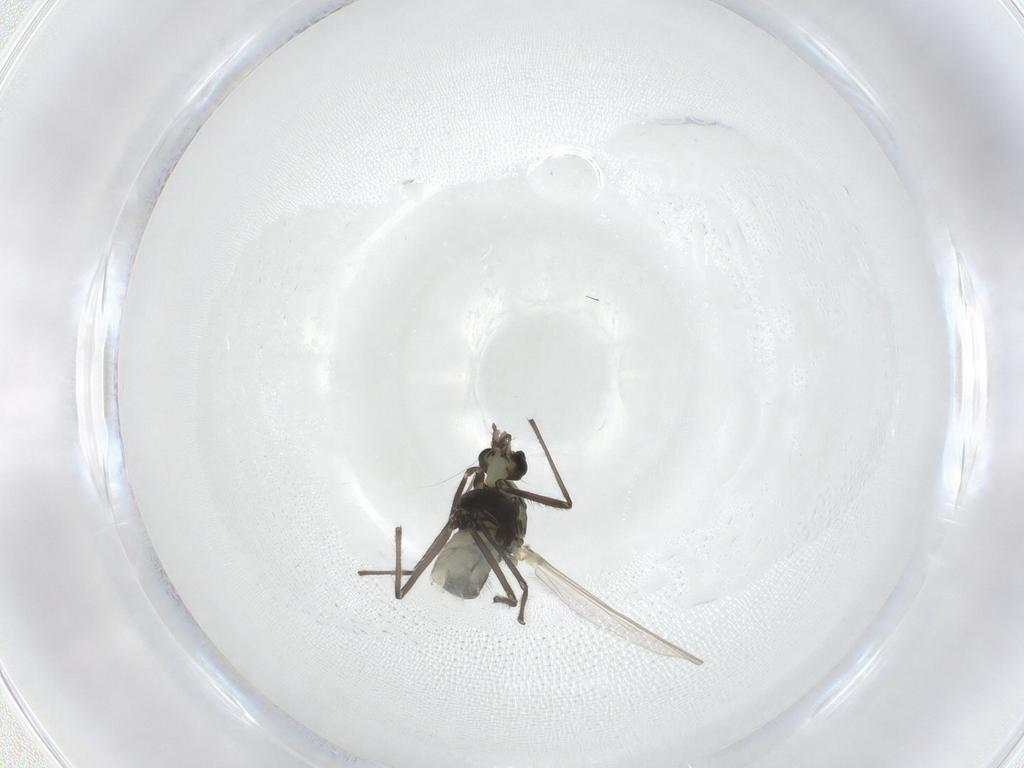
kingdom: Animalia
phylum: Arthropoda
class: Insecta
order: Diptera
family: Chironomidae
